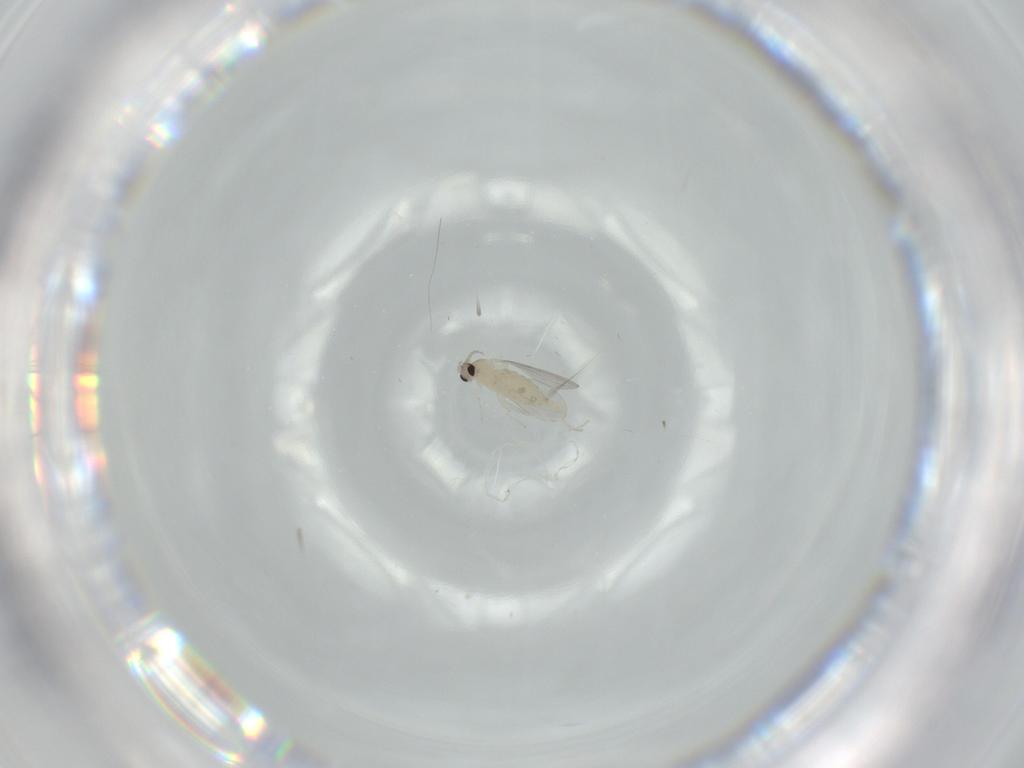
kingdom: Animalia
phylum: Arthropoda
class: Insecta
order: Diptera
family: Cecidomyiidae
